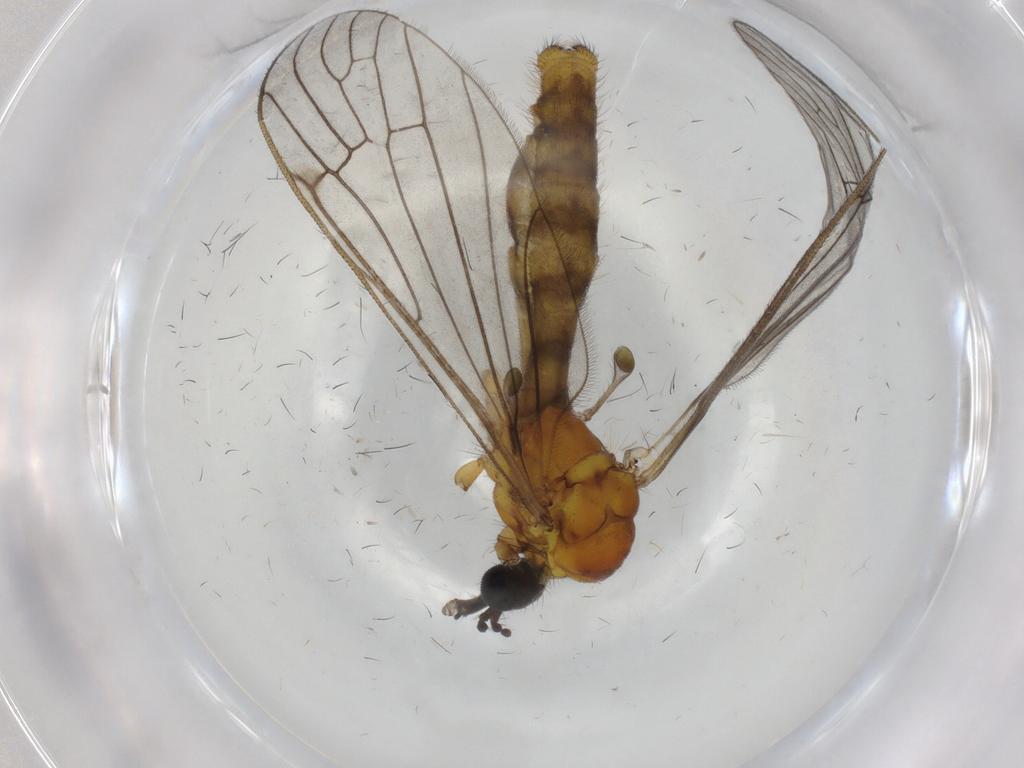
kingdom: Animalia
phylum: Arthropoda
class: Insecta
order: Diptera
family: Limoniidae
